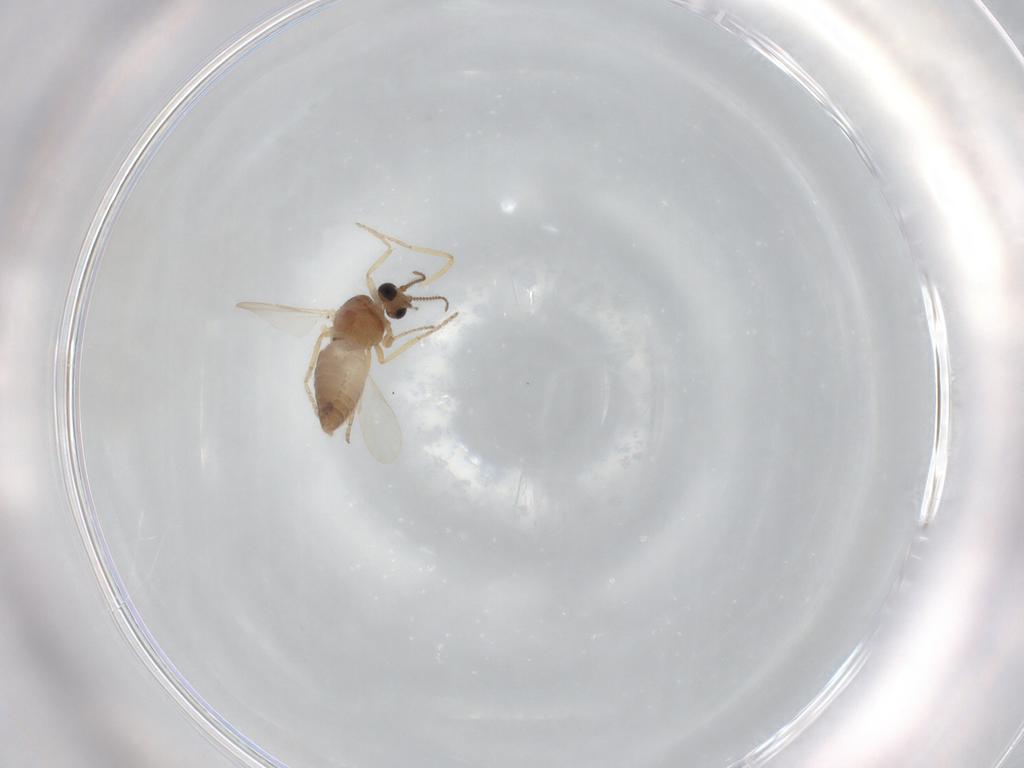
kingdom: Animalia
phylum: Arthropoda
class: Insecta
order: Diptera
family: Ceratopogonidae
